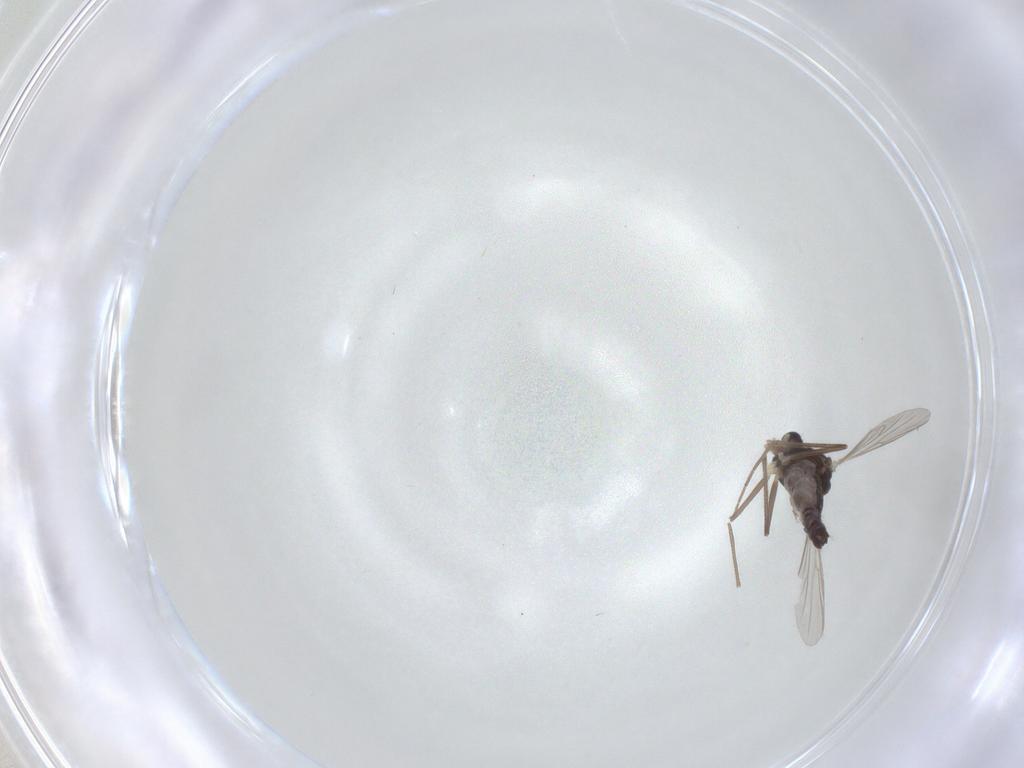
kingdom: Animalia
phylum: Arthropoda
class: Insecta
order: Diptera
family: Chironomidae
